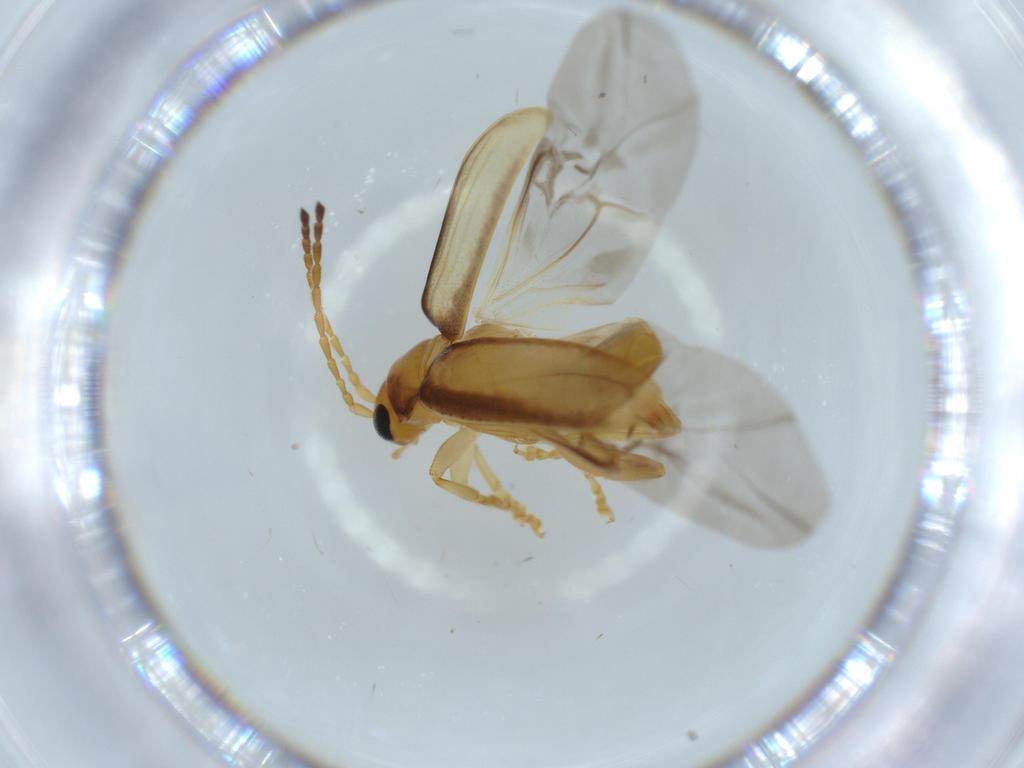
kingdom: Animalia
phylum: Arthropoda
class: Insecta
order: Coleoptera
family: Chrysomelidae
